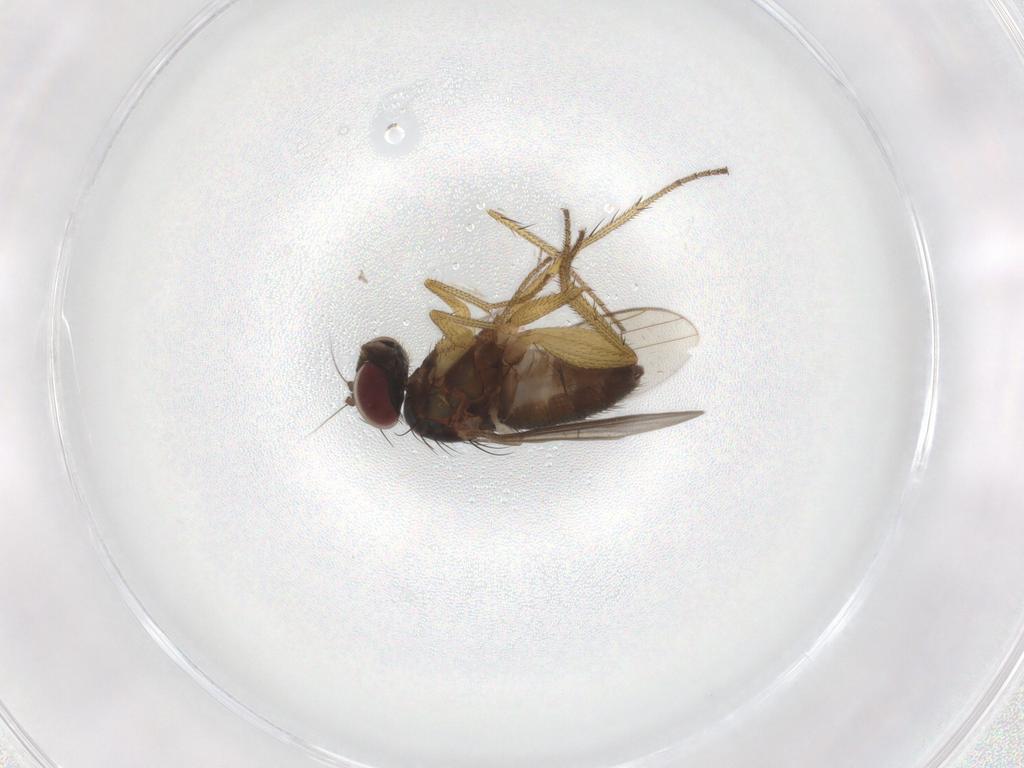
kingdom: Animalia
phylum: Arthropoda
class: Insecta
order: Diptera
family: Chironomidae
